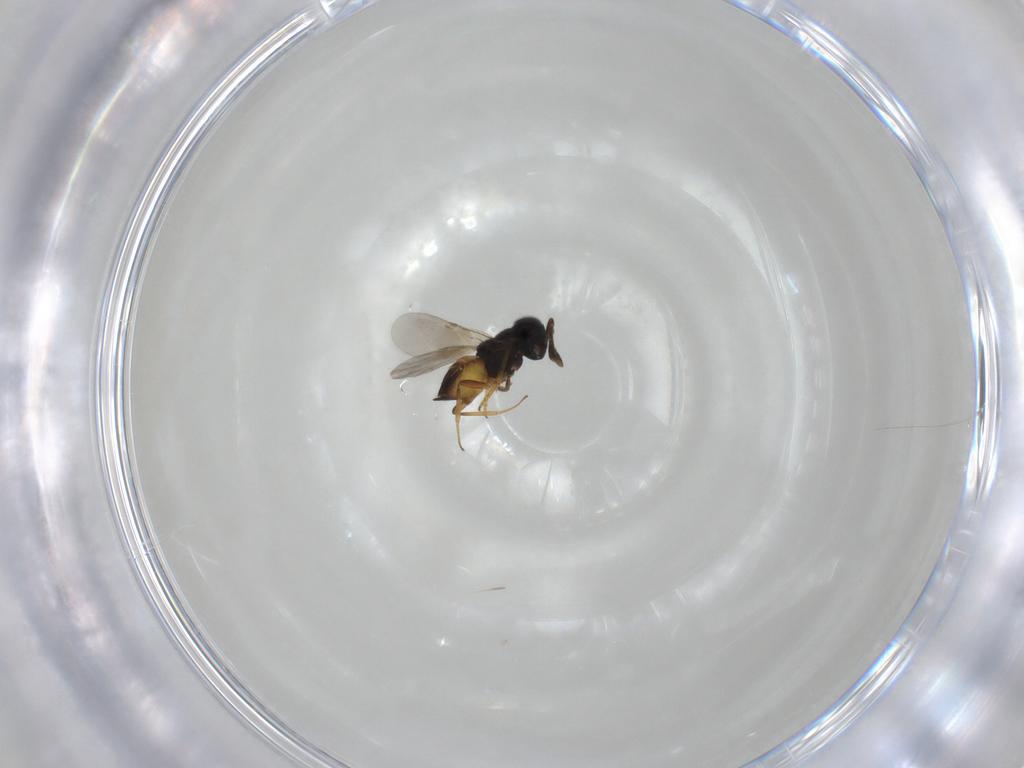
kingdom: Animalia
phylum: Arthropoda
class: Insecta
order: Hymenoptera
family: Encyrtidae
